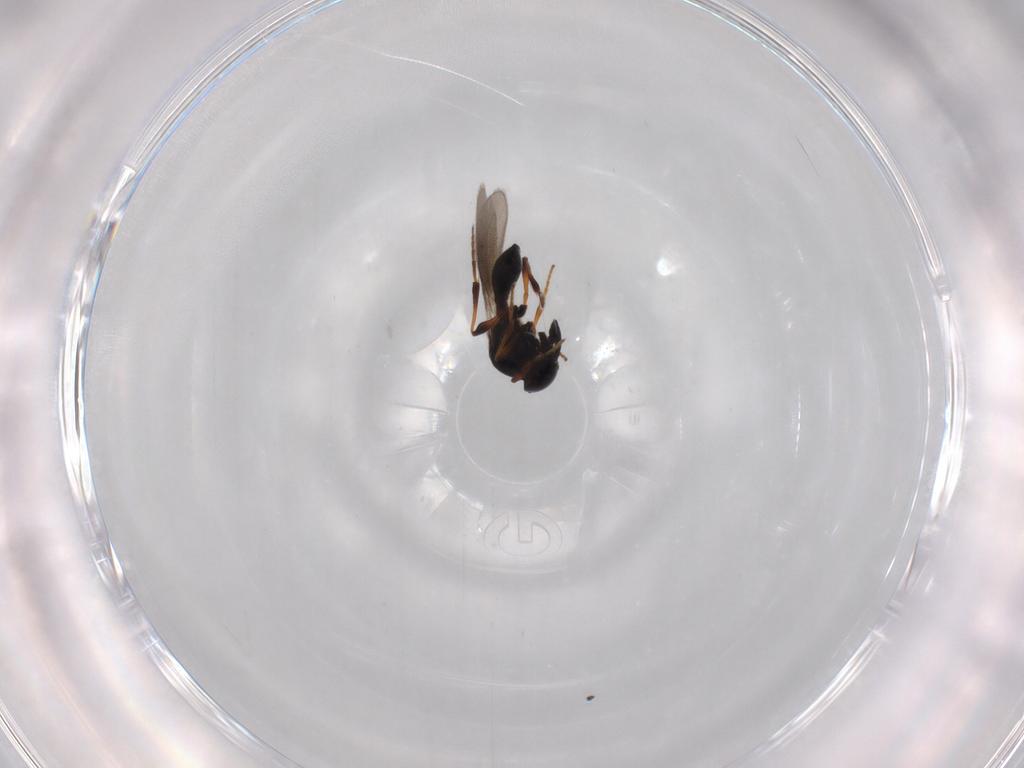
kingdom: Animalia
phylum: Arthropoda
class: Insecta
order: Hymenoptera
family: Platygastridae
